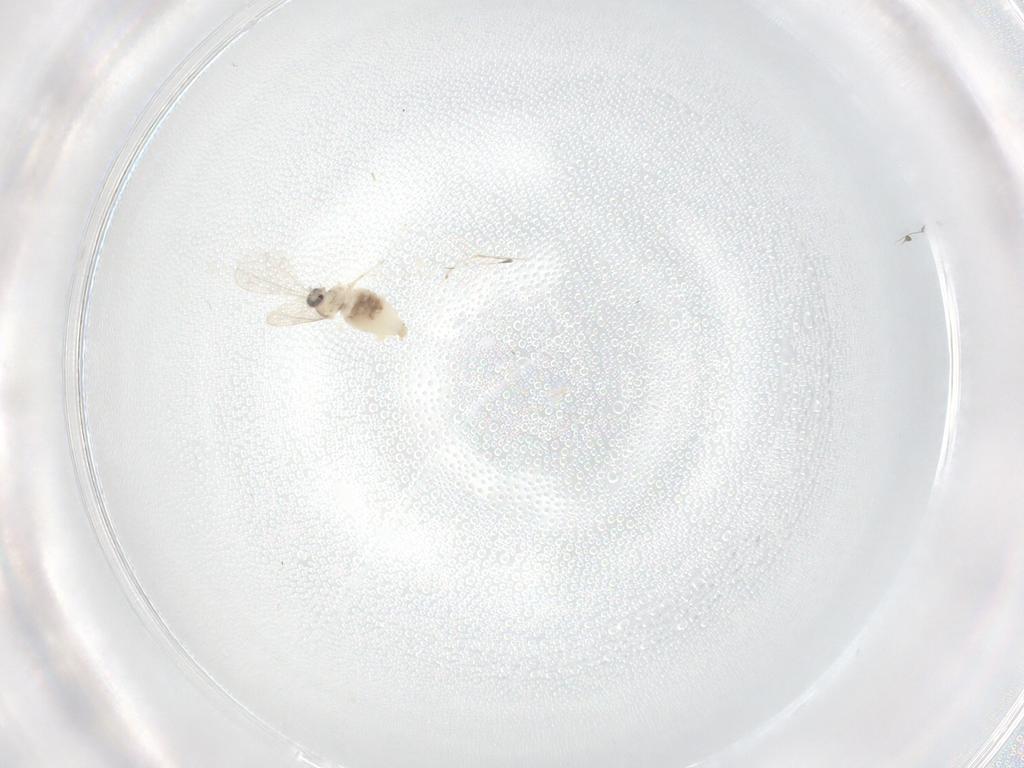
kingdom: Animalia
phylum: Arthropoda
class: Insecta
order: Diptera
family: Cecidomyiidae
